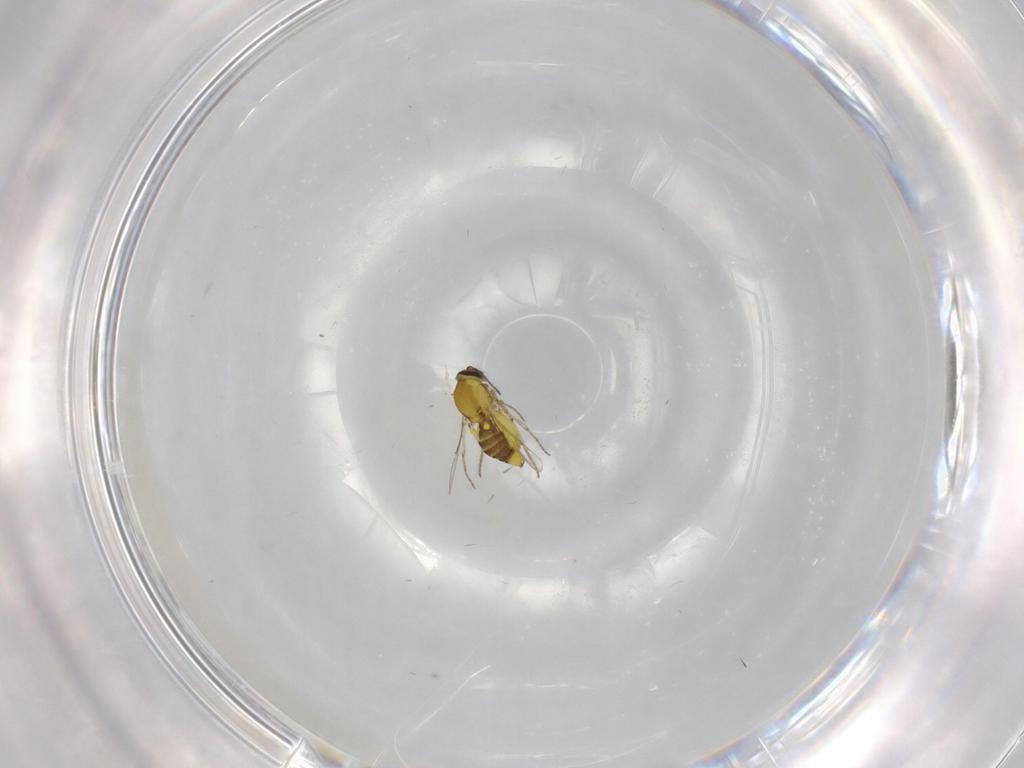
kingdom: Animalia
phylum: Arthropoda
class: Insecta
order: Diptera
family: Ceratopogonidae
